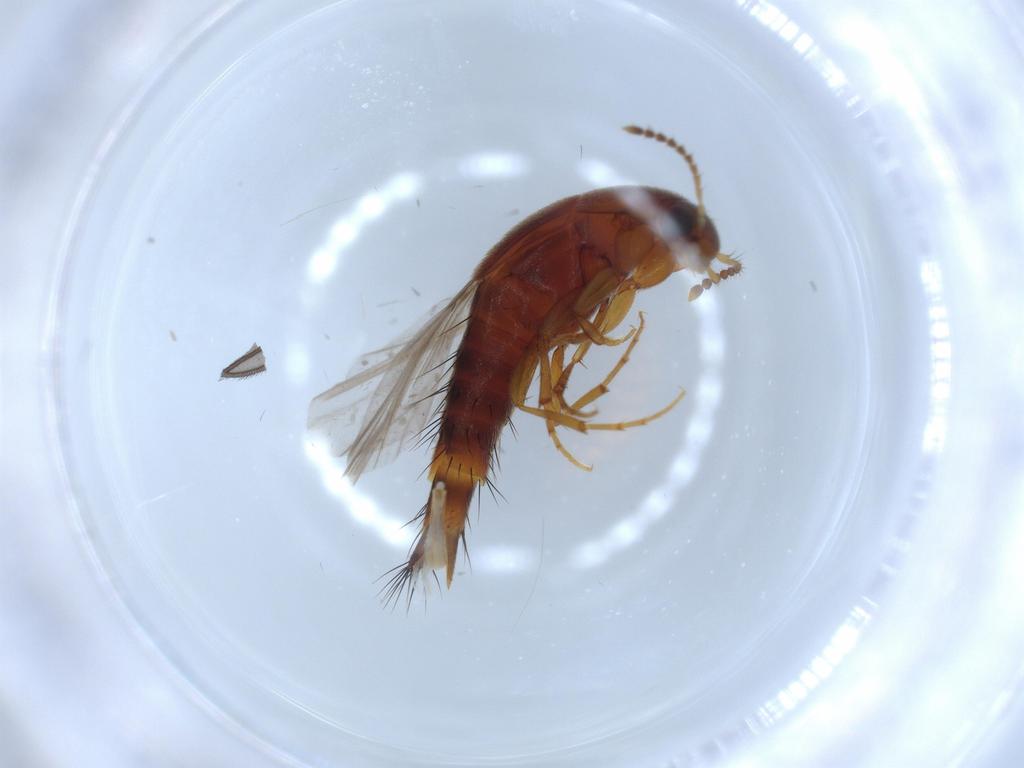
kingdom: Animalia
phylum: Arthropoda
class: Insecta
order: Coleoptera
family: Staphylinidae
